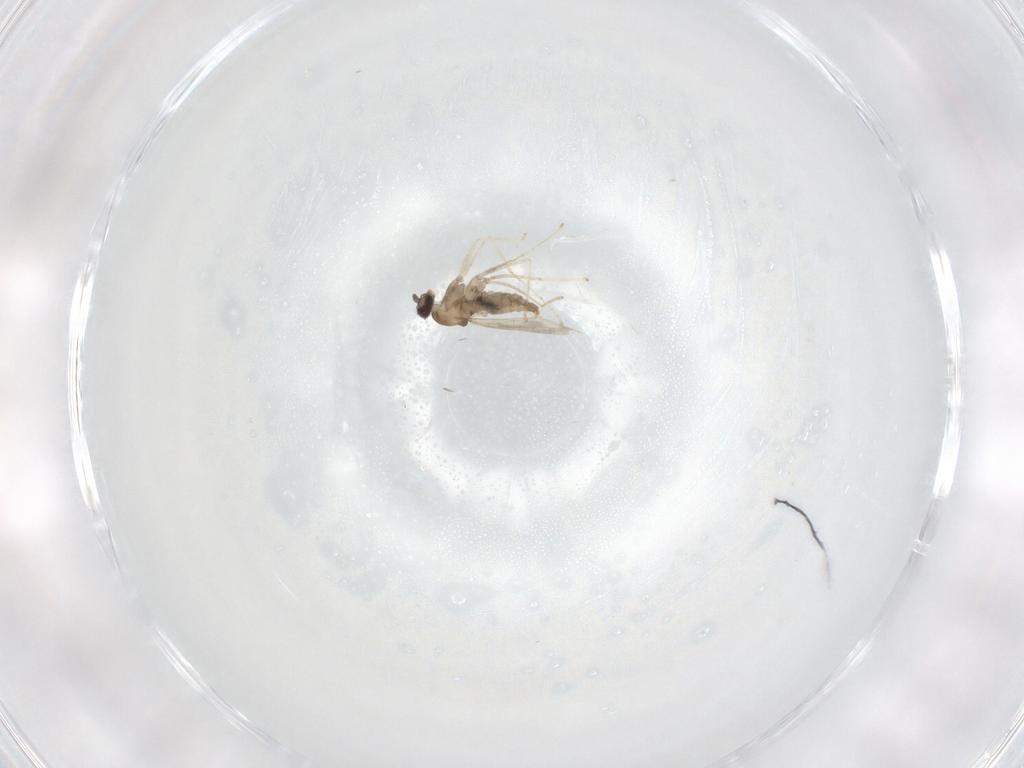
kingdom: Animalia
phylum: Arthropoda
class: Insecta
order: Diptera
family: Cecidomyiidae
